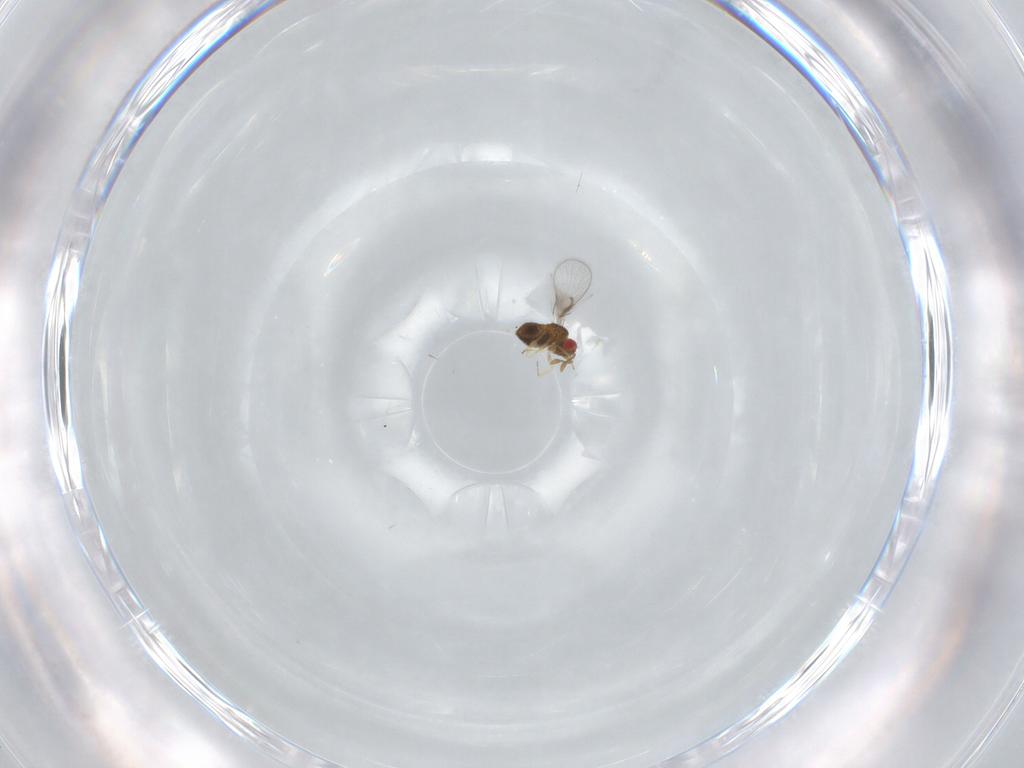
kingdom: Animalia
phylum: Arthropoda
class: Insecta
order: Hymenoptera
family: Trichogrammatidae
